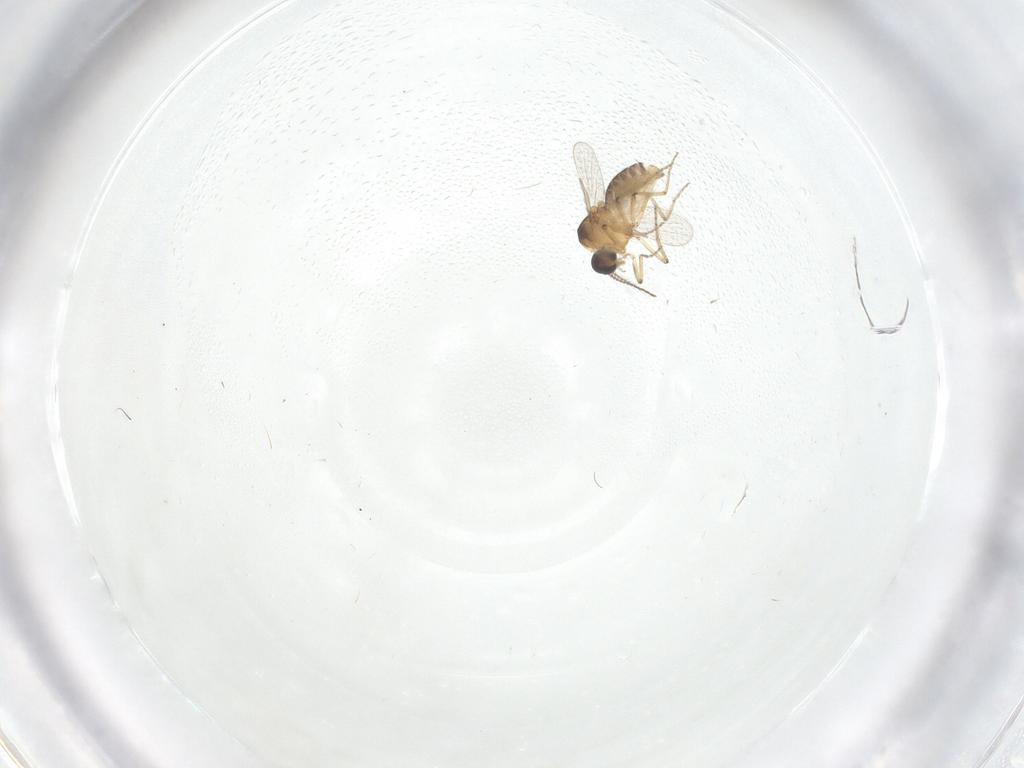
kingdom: Animalia
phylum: Arthropoda
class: Insecta
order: Diptera
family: Ceratopogonidae
